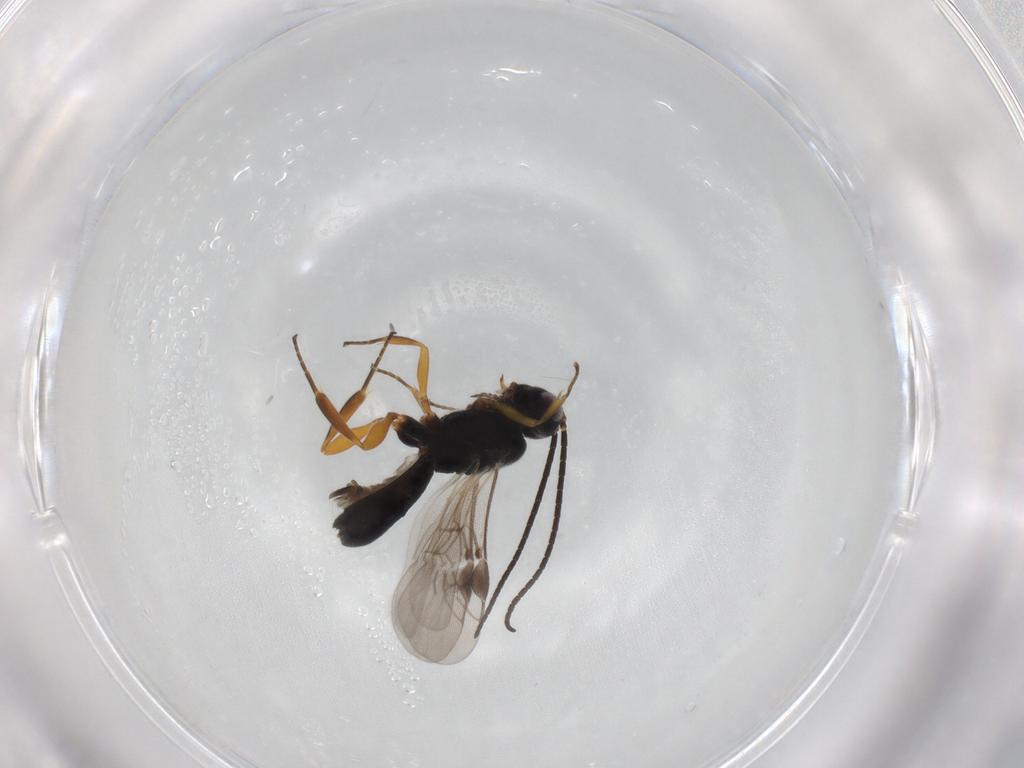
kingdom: Animalia
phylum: Arthropoda
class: Insecta
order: Hymenoptera
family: Braconidae
